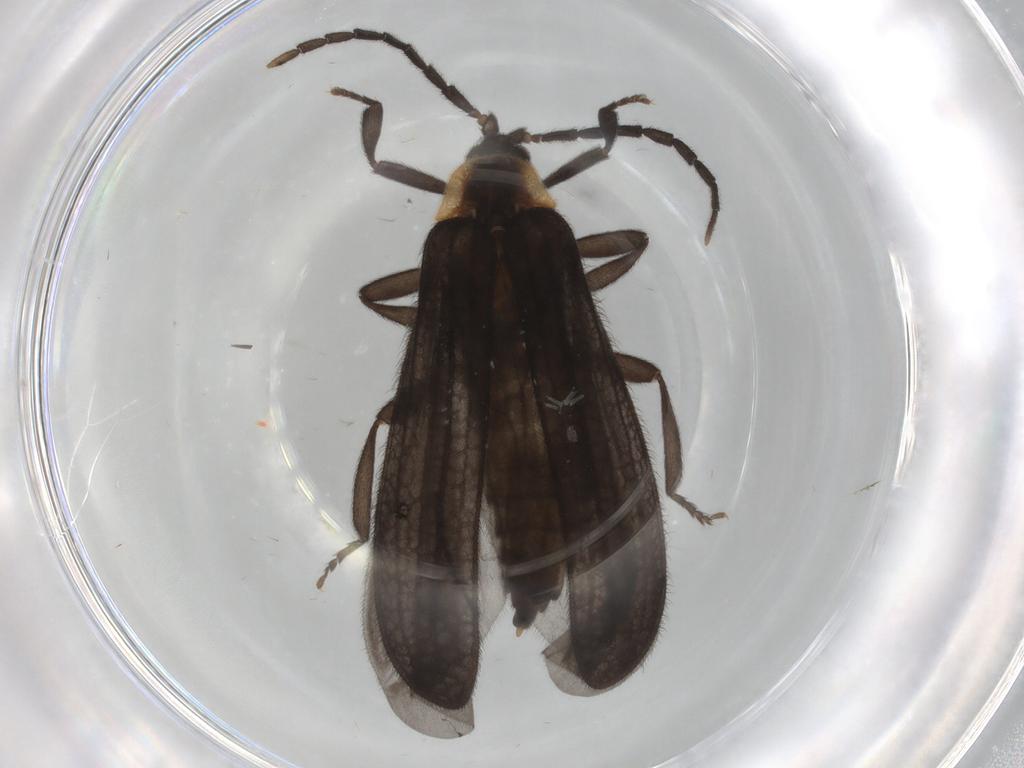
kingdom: Animalia
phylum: Arthropoda
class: Insecta
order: Coleoptera
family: Lycidae
